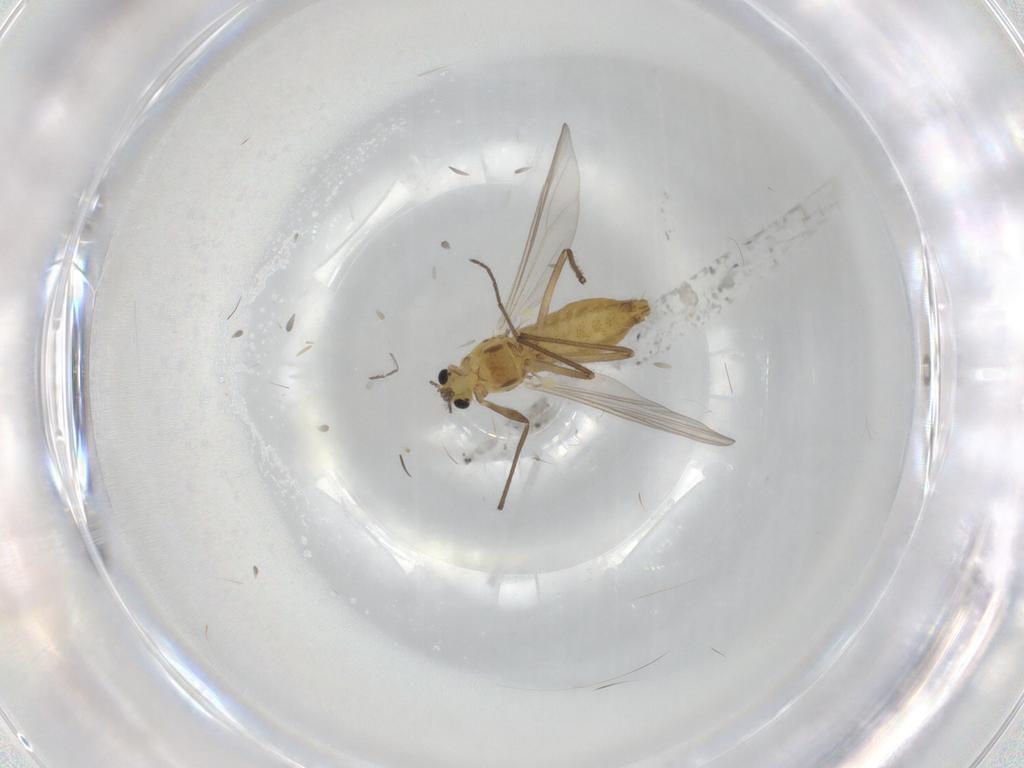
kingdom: Animalia
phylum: Arthropoda
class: Insecta
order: Diptera
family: Chironomidae
